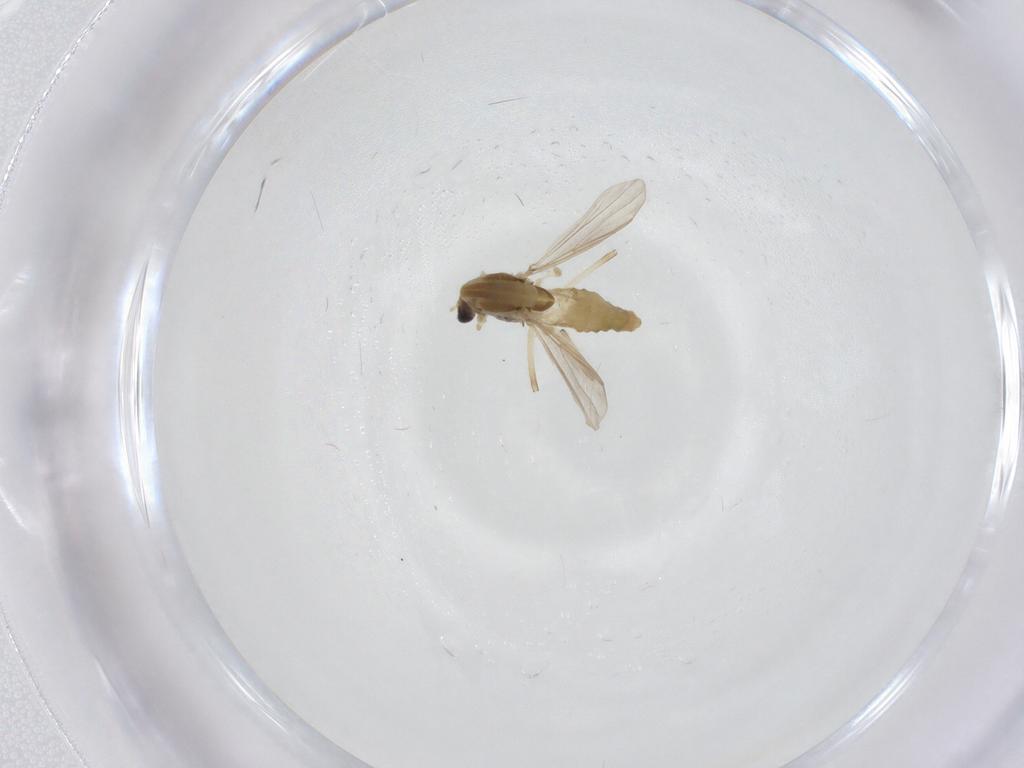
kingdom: Animalia
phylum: Arthropoda
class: Insecta
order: Diptera
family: Chironomidae
